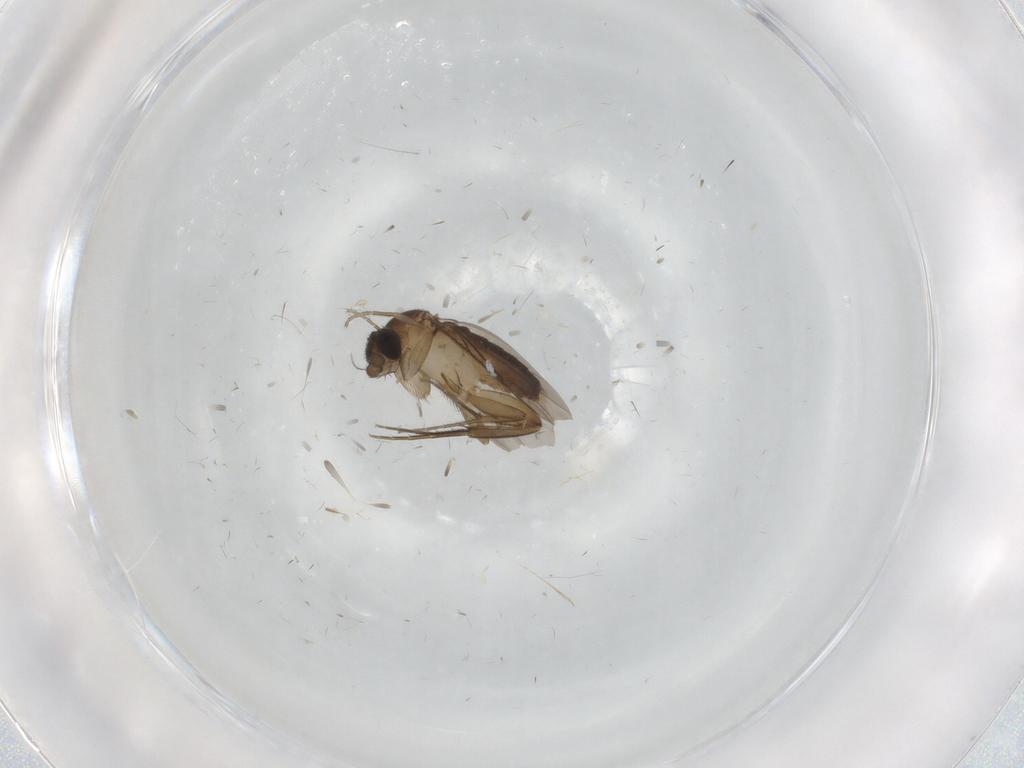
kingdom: Animalia
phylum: Arthropoda
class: Insecta
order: Diptera
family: Phoridae
